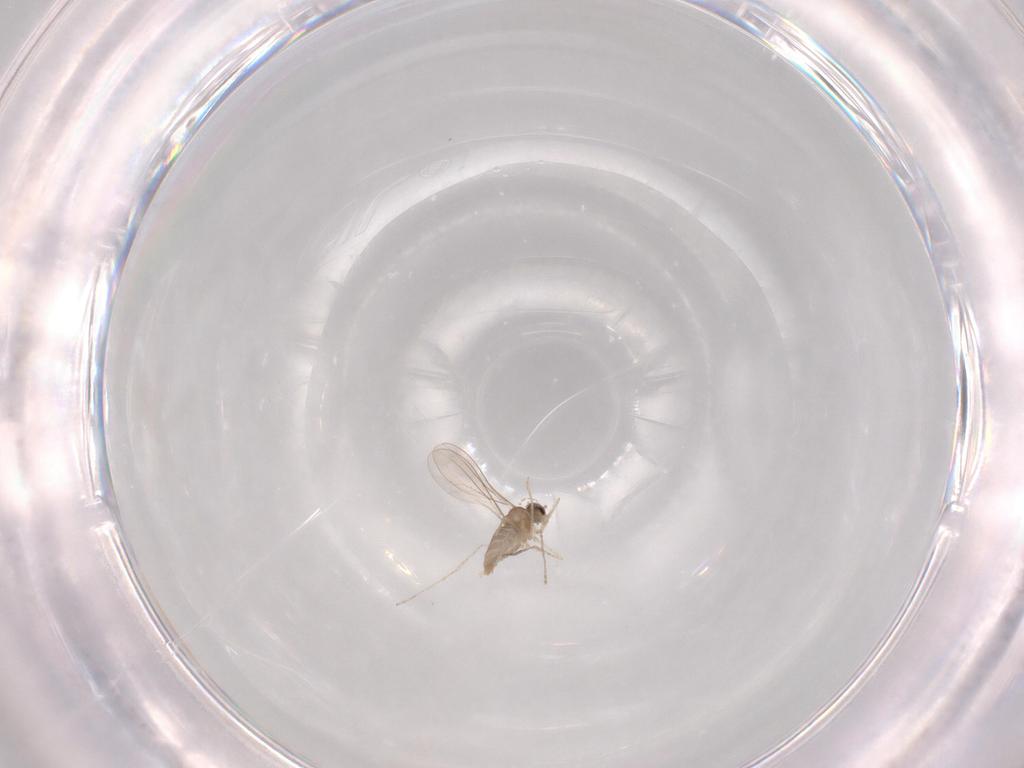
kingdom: Animalia
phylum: Arthropoda
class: Insecta
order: Diptera
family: Cecidomyiidae
